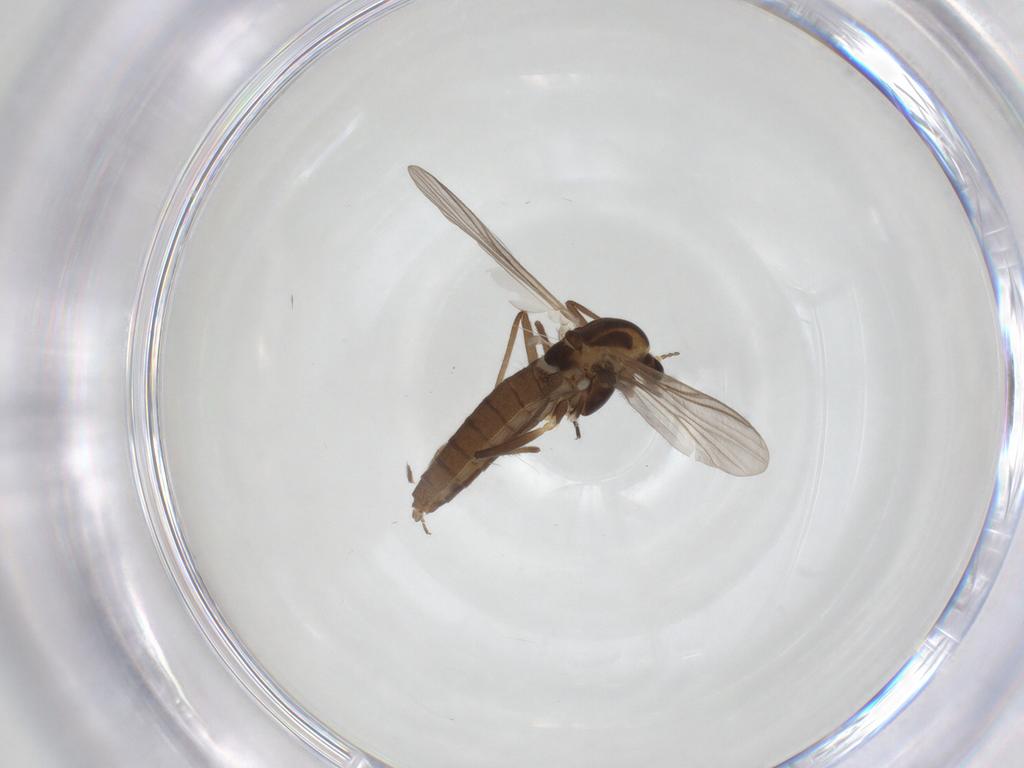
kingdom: Animalia
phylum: Arthropoda
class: Insecta
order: Diptera
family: Chironomidae
